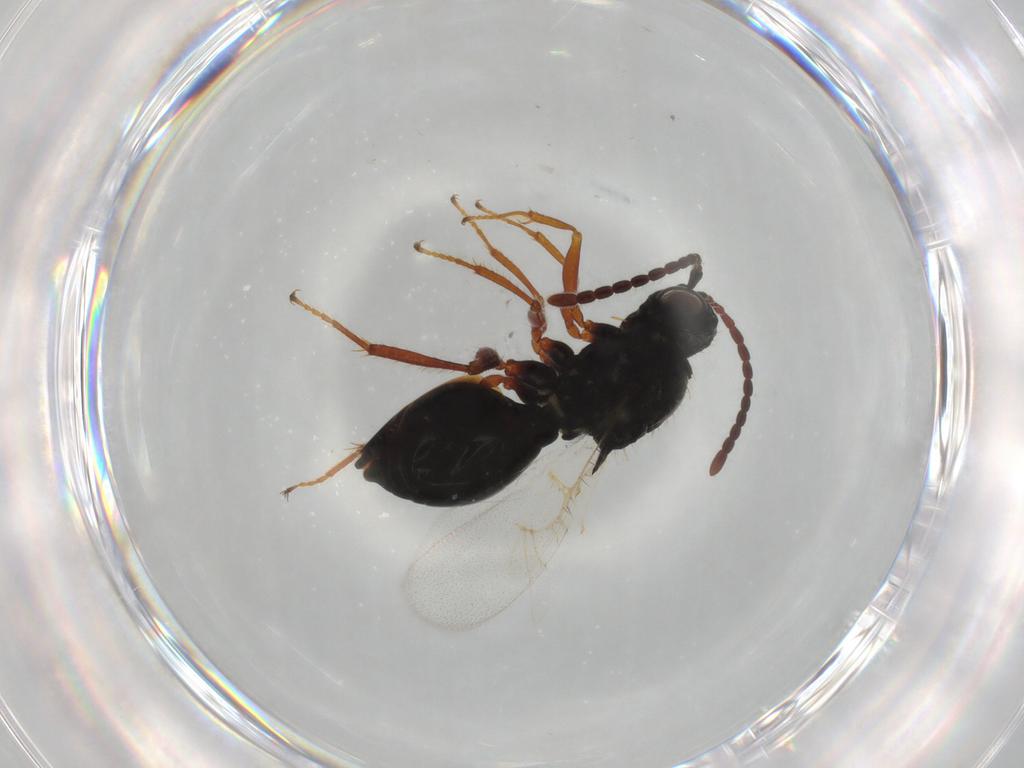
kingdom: Animalia
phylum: Arthropoda
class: Insecta
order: Hymenoptera
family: Figitidae
